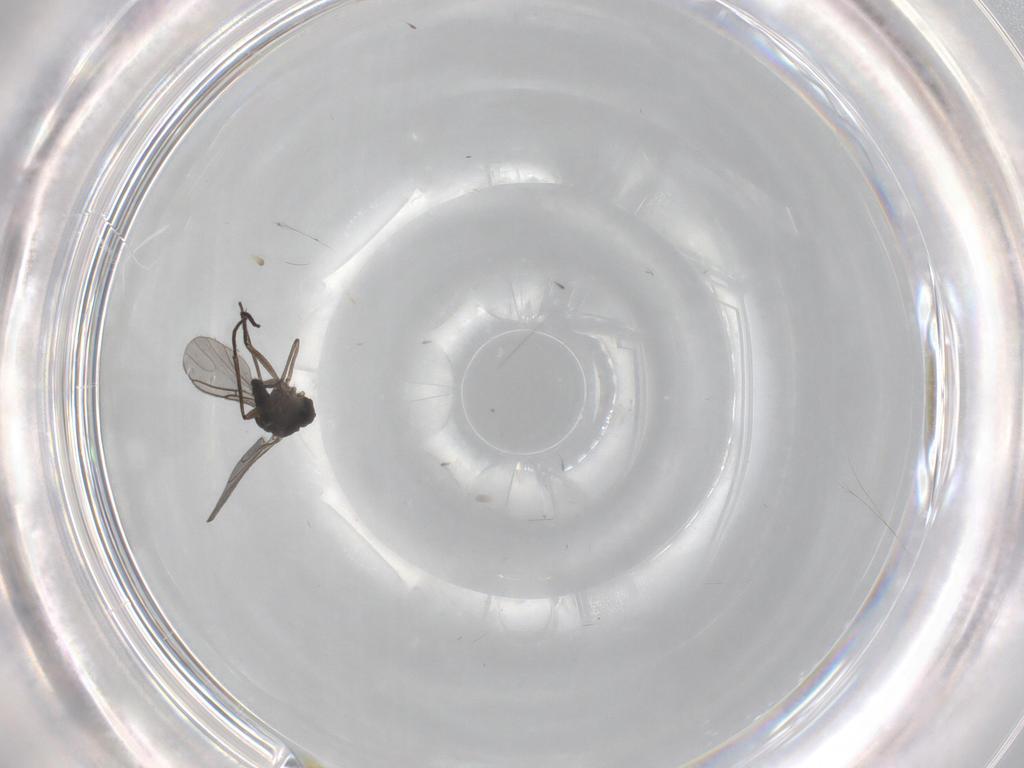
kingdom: Animalia
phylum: Arthropoda
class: Insecta
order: Diptera
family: Sciaridae
